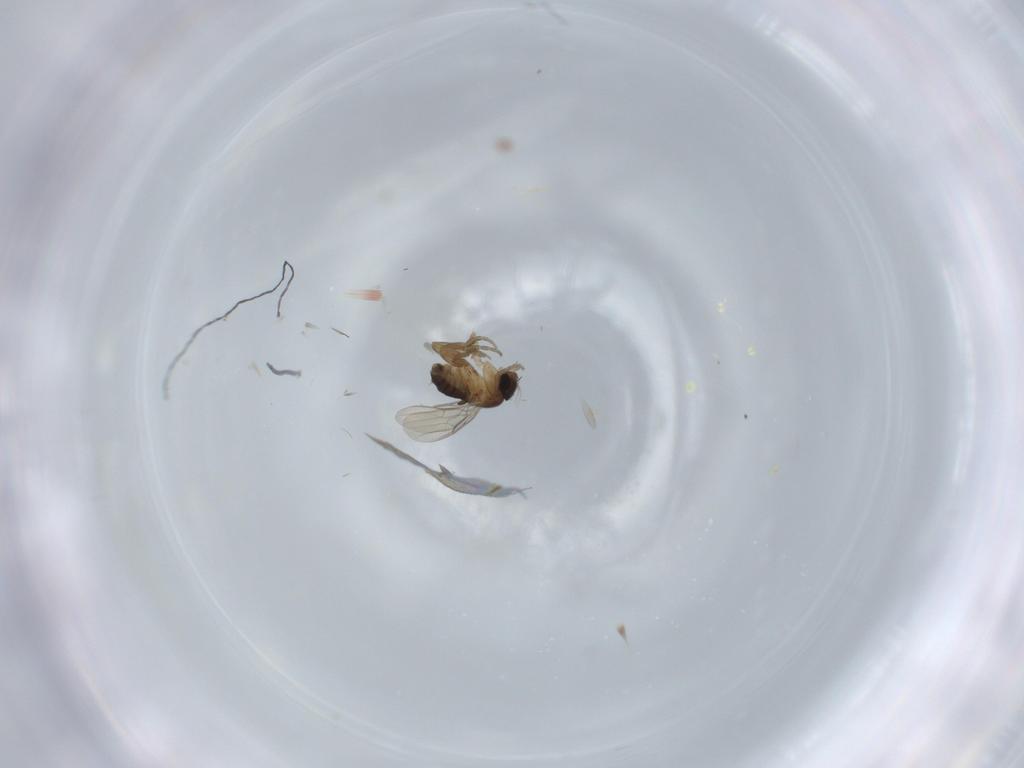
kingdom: Animalia
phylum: Arthropoda
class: Insecta
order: Diptera
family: Phoridae
